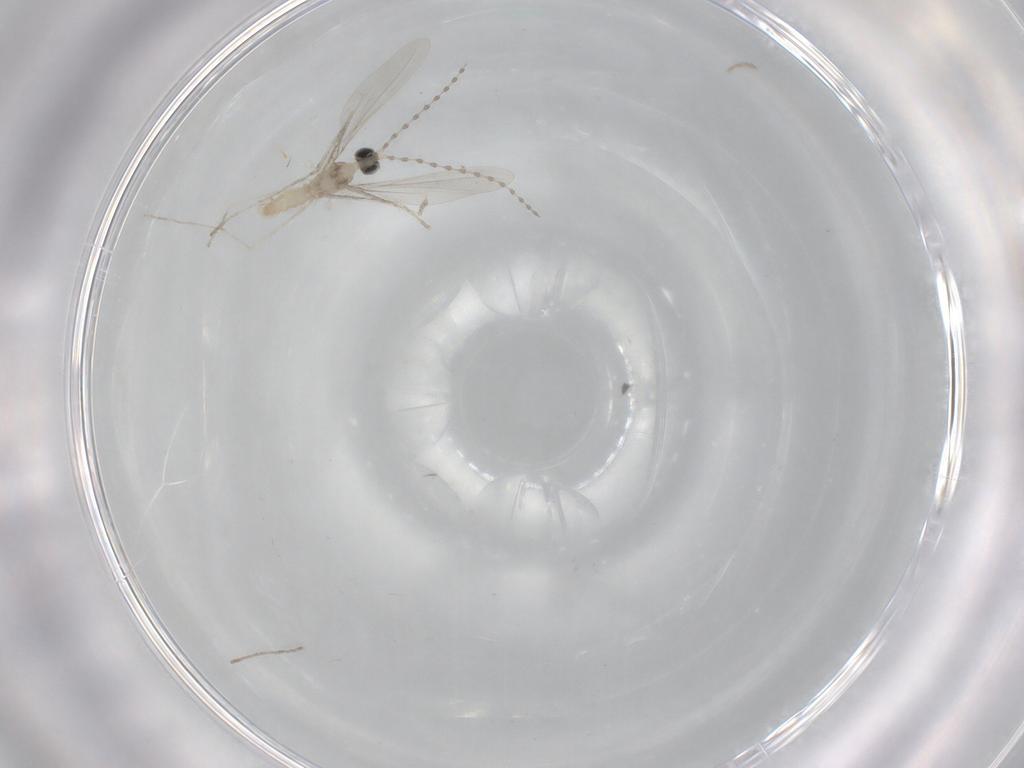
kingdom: Animalia
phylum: Arthropoda
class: Insecta
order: Diptera
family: Cecidomyiidae
